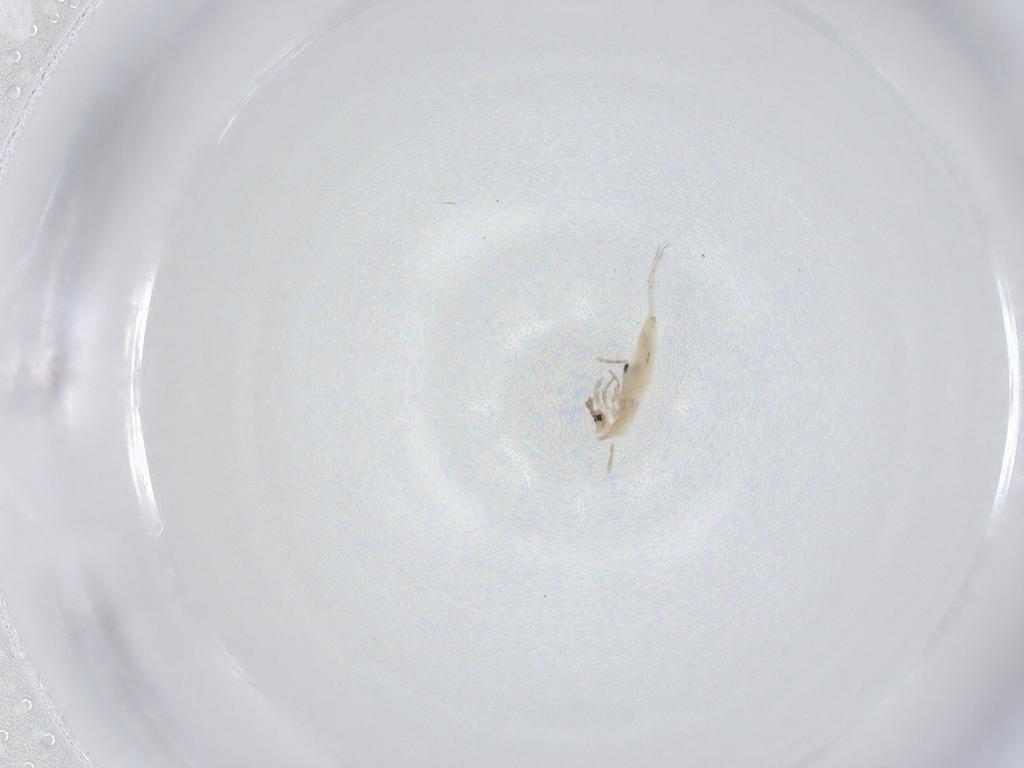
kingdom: Animalia
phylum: Arthropoda
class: Collembola
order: Entomobryomorpha
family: Entomobryidae
